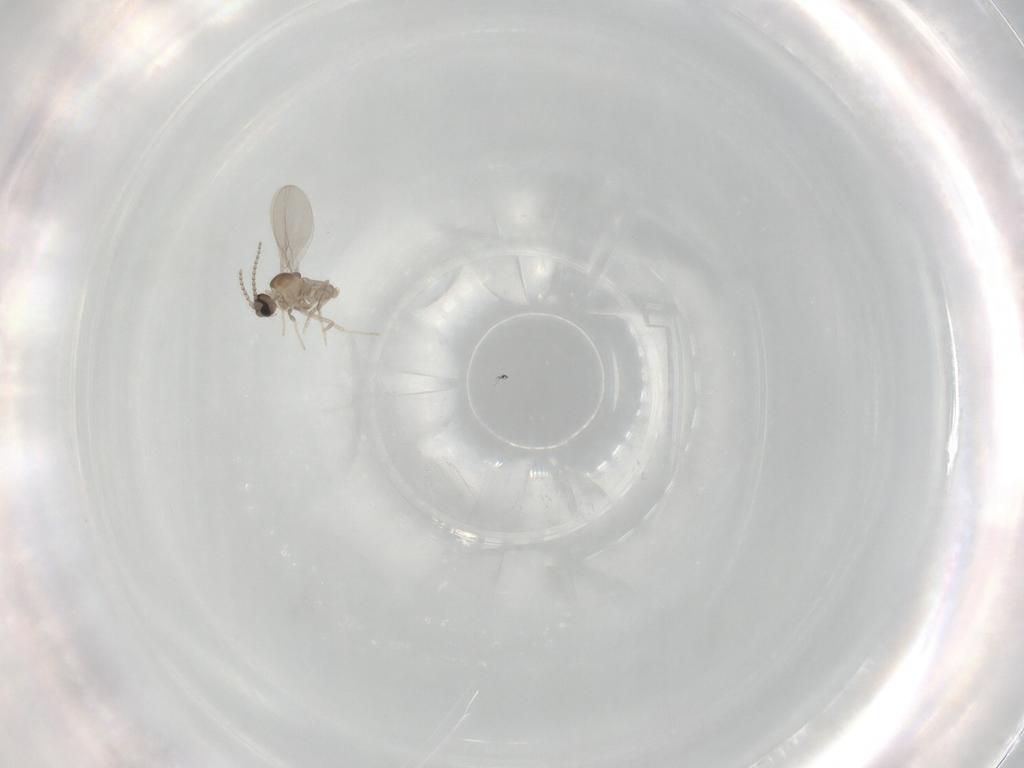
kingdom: Animalia
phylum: Arthropoda
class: Insecta
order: Diptera
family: Cecidomyiidae
